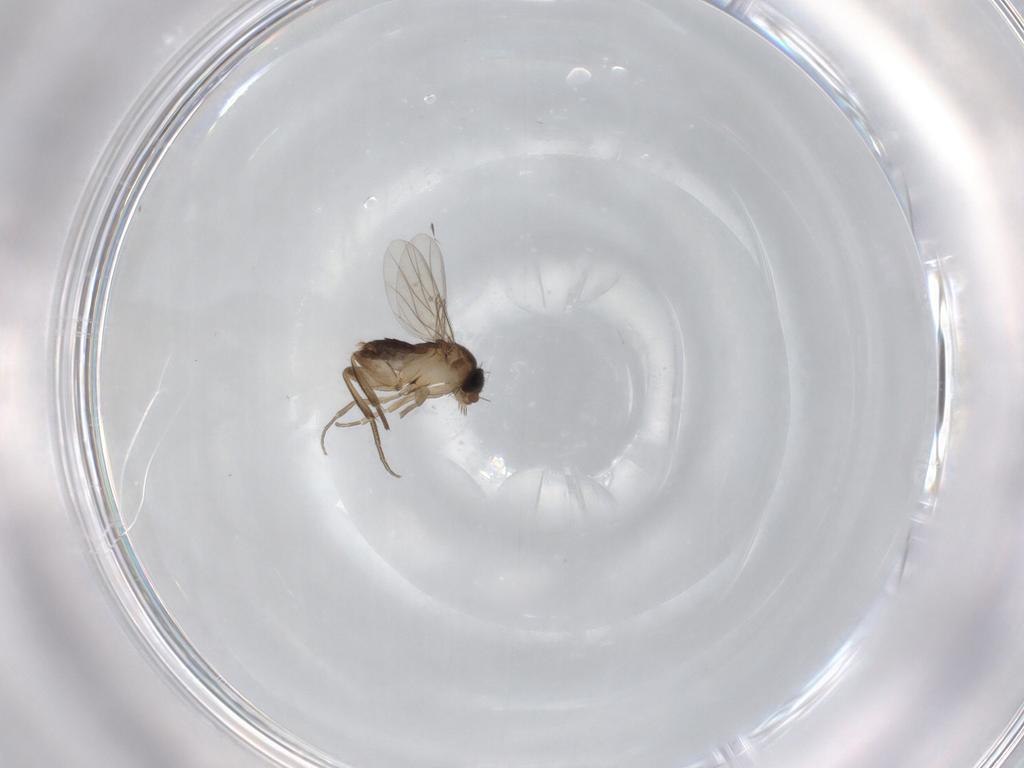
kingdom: Animalia
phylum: Arthropoda
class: Insecta
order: Diptera
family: Phoridae
